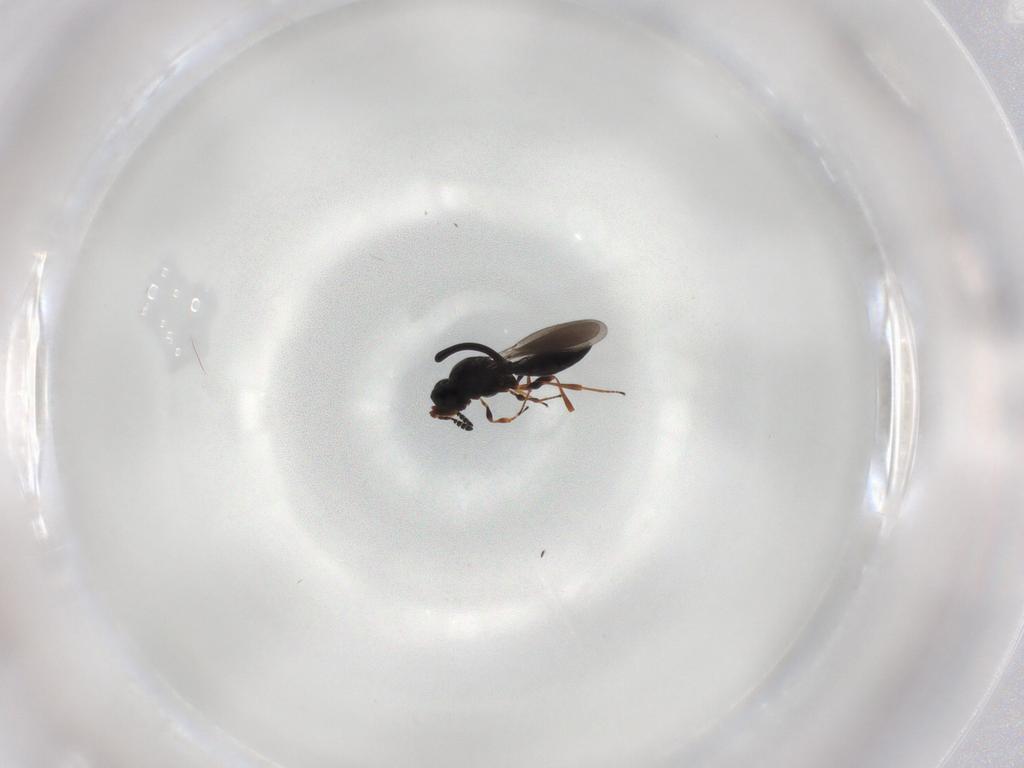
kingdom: Animalia
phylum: Arthropoda
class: Insecta
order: Hymenoptera
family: Platygastridae
